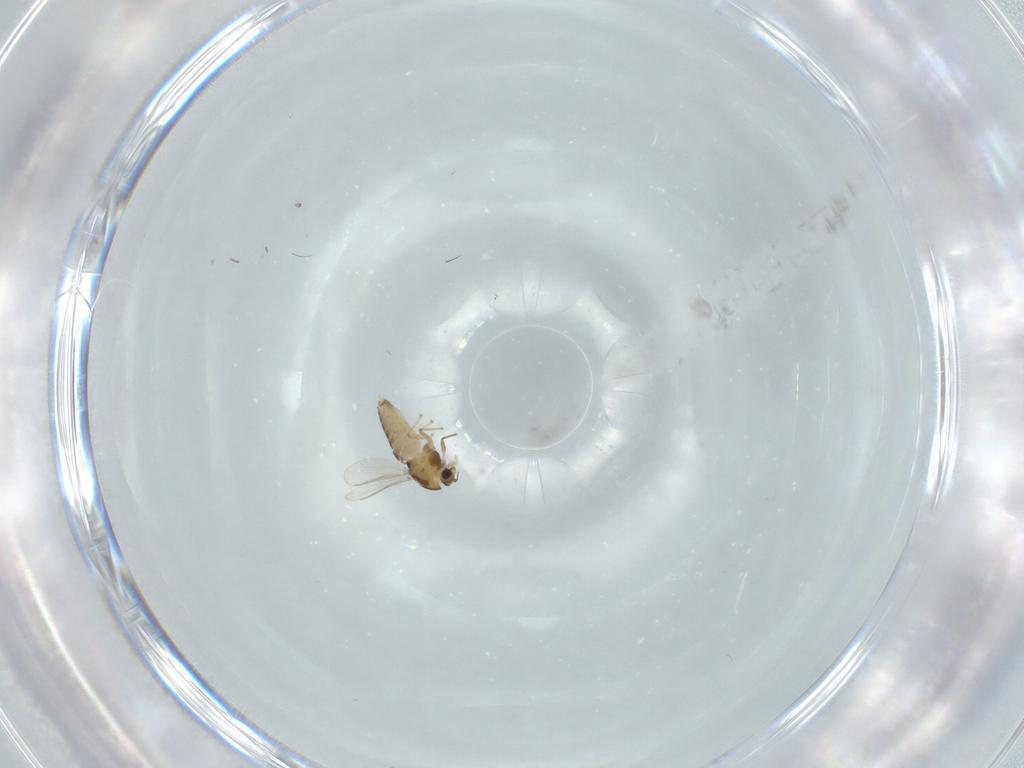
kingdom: Animalia
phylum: Arthropoda
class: Insecta
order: Diptera
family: Chironomidae
